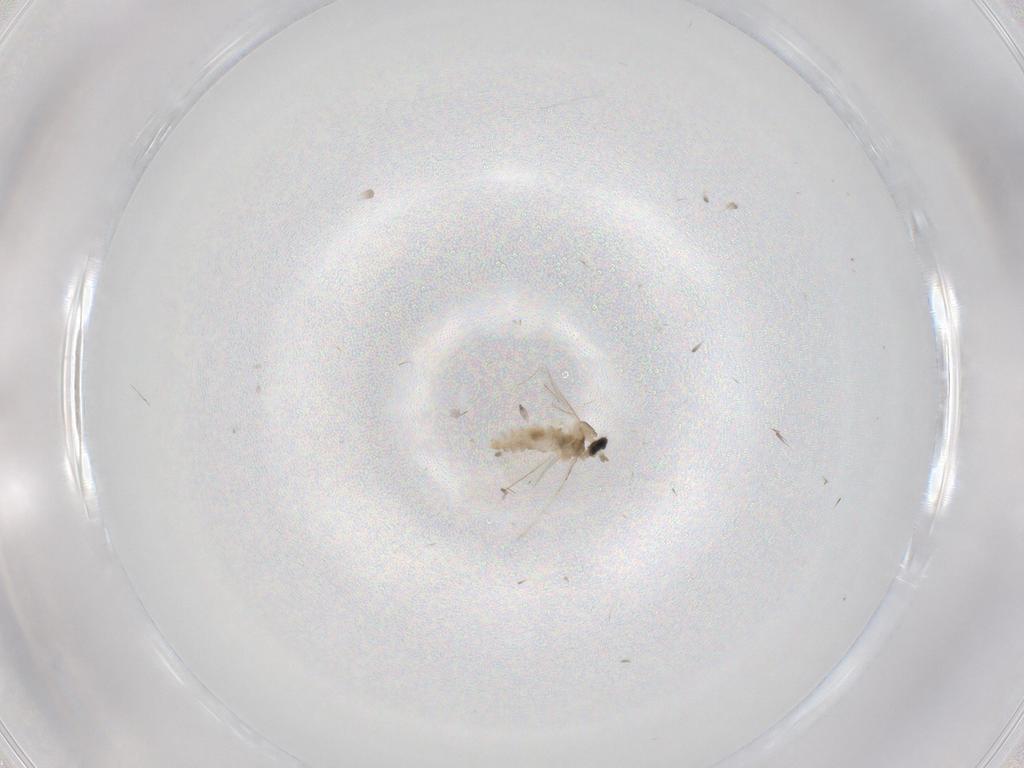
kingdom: Animalia
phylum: Arthropoda
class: Insecta
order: Diptera
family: Cecidomyiidae
